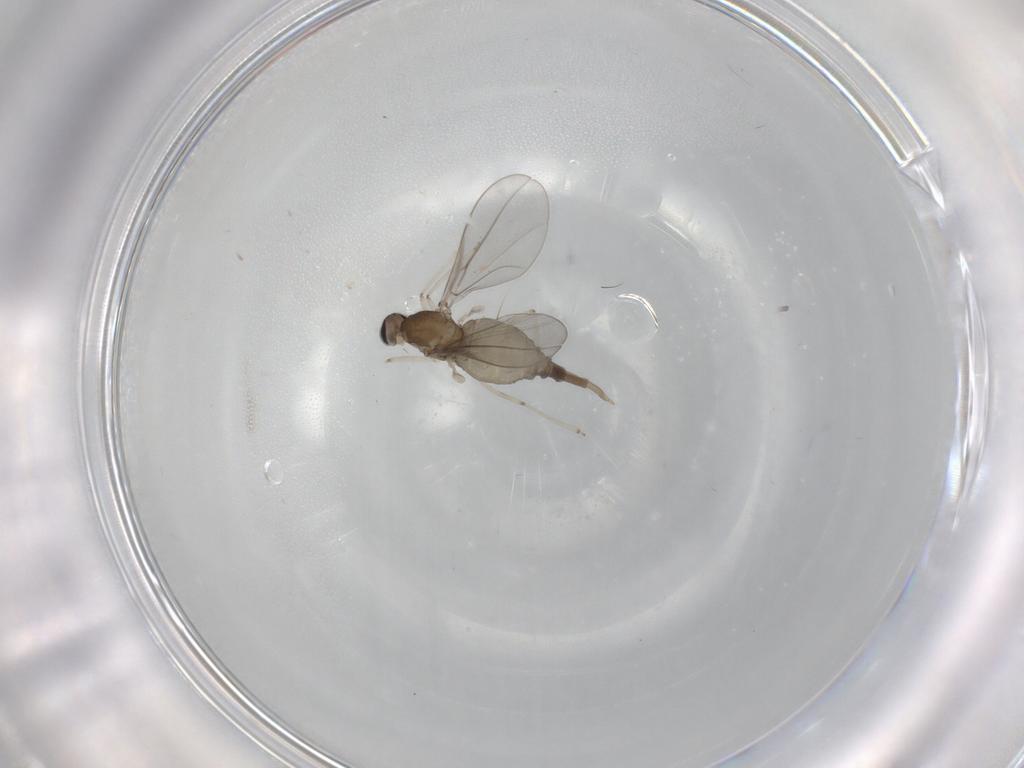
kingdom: Animalia
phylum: Arthropoda
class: Insecta
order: Diptera
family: Cecidomyiidae
